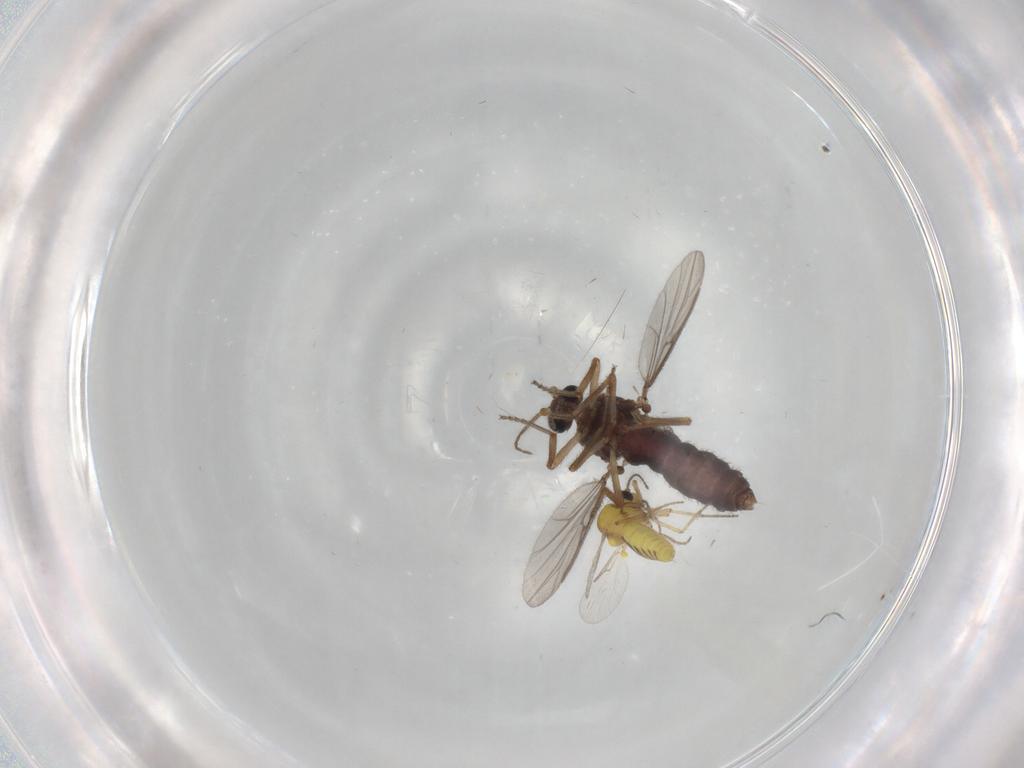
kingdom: Animalia
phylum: Arthropoda
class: Insecta
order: Diptera
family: Ceratopogonidae
